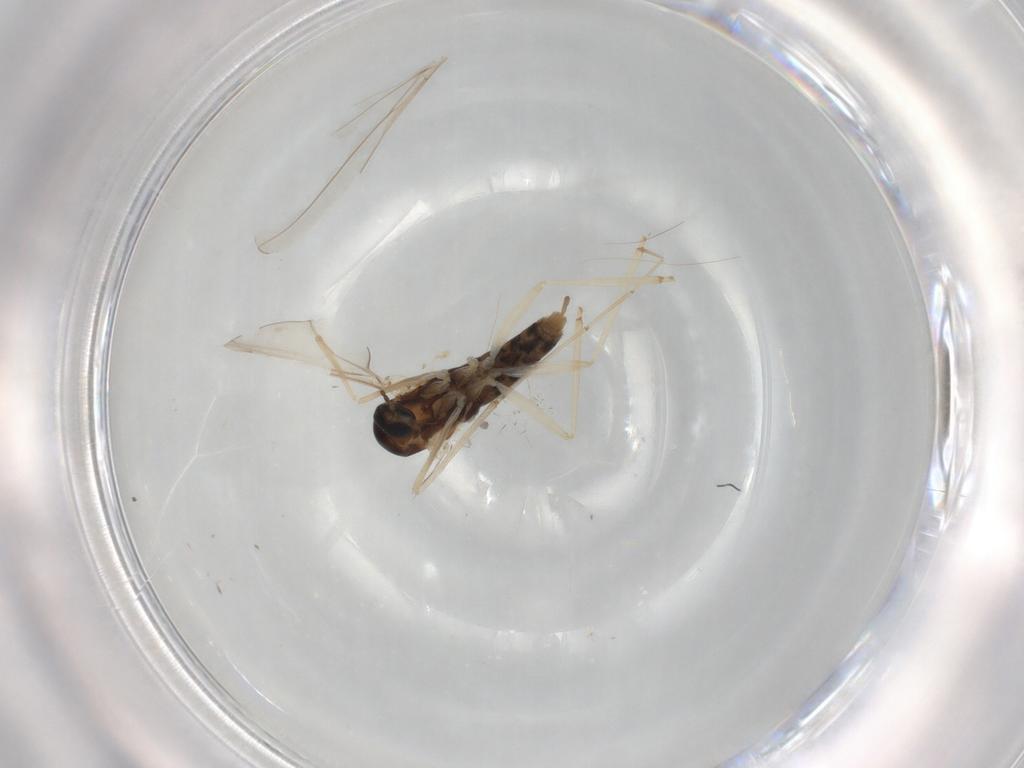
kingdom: Animalia
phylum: Arthropoda
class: Insecta
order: Diptera
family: Cecidomyiidae
